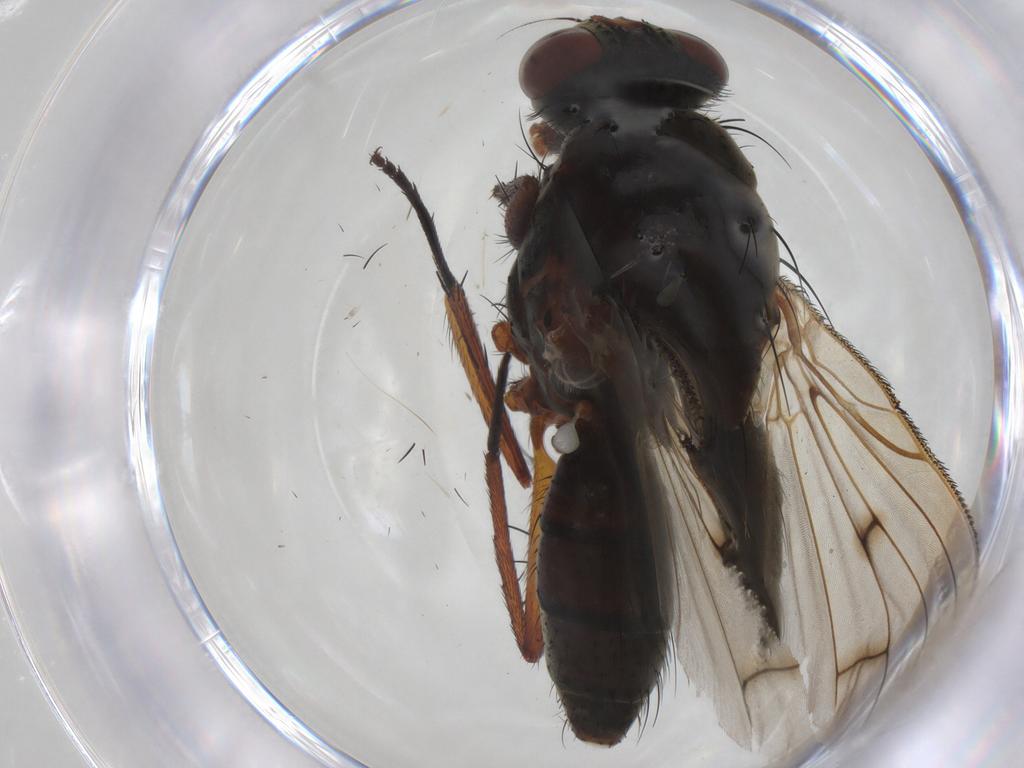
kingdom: Animalia
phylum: Arthropoda
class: Insecta
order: Diptera
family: Anthomyiidae
